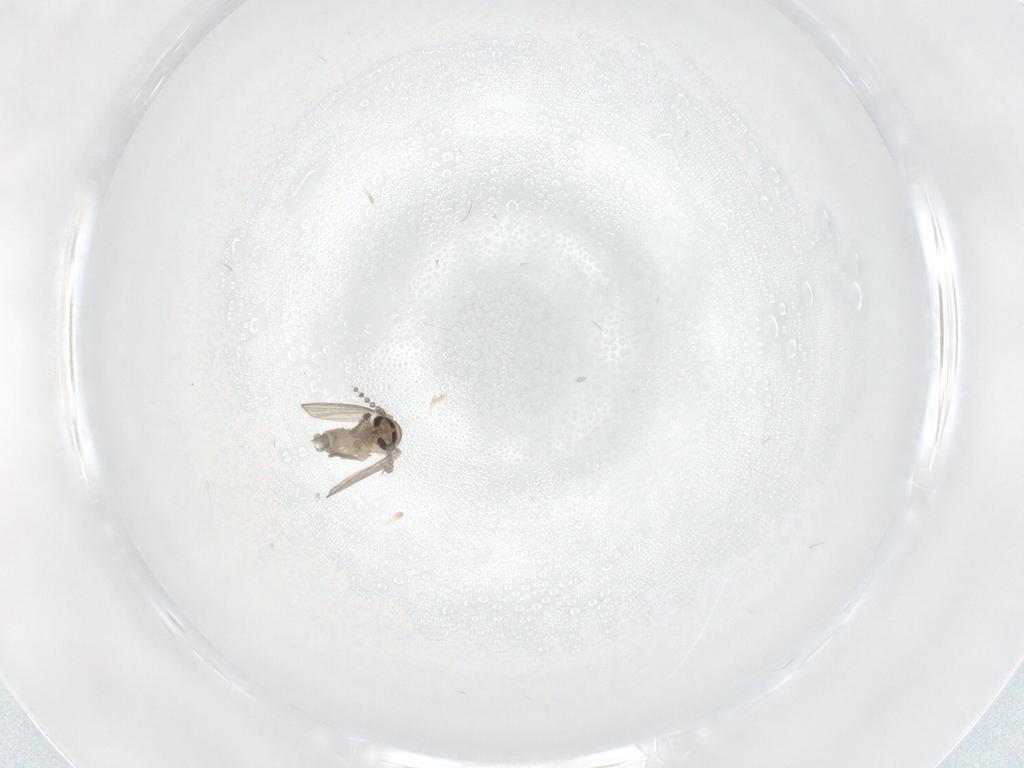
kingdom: Animalia
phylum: Arthropoda
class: Insecta
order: Diptera
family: Psychodidae
